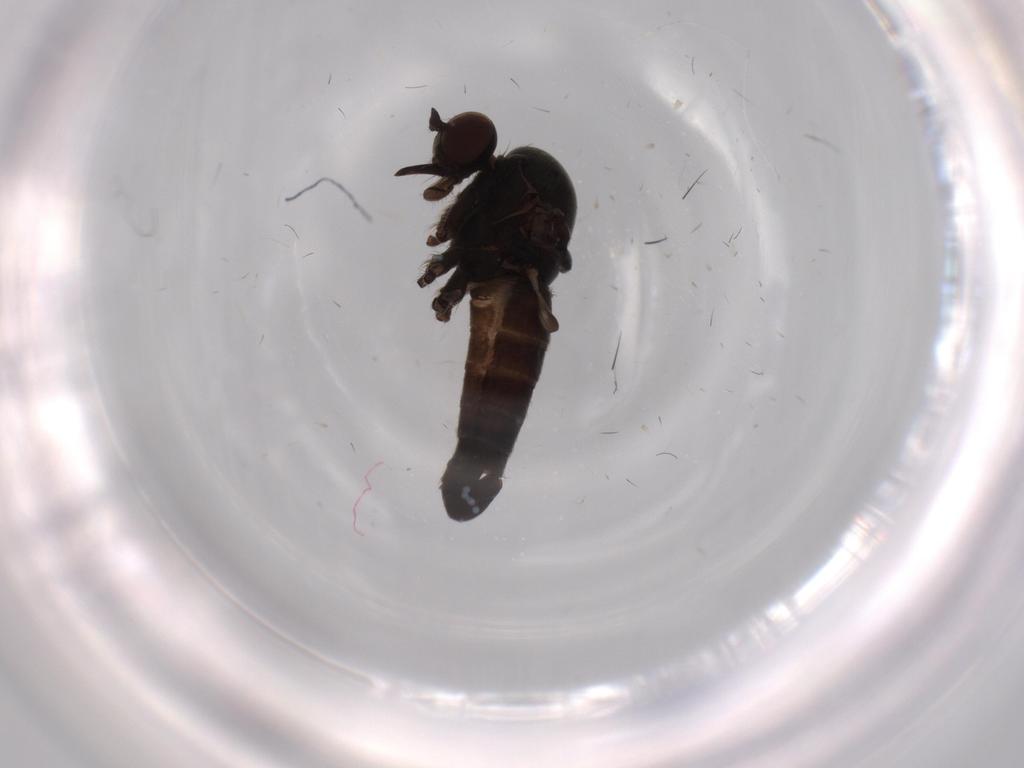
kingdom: Animalia
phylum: Arthropoda
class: Insecta
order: Diptera
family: Empididae
